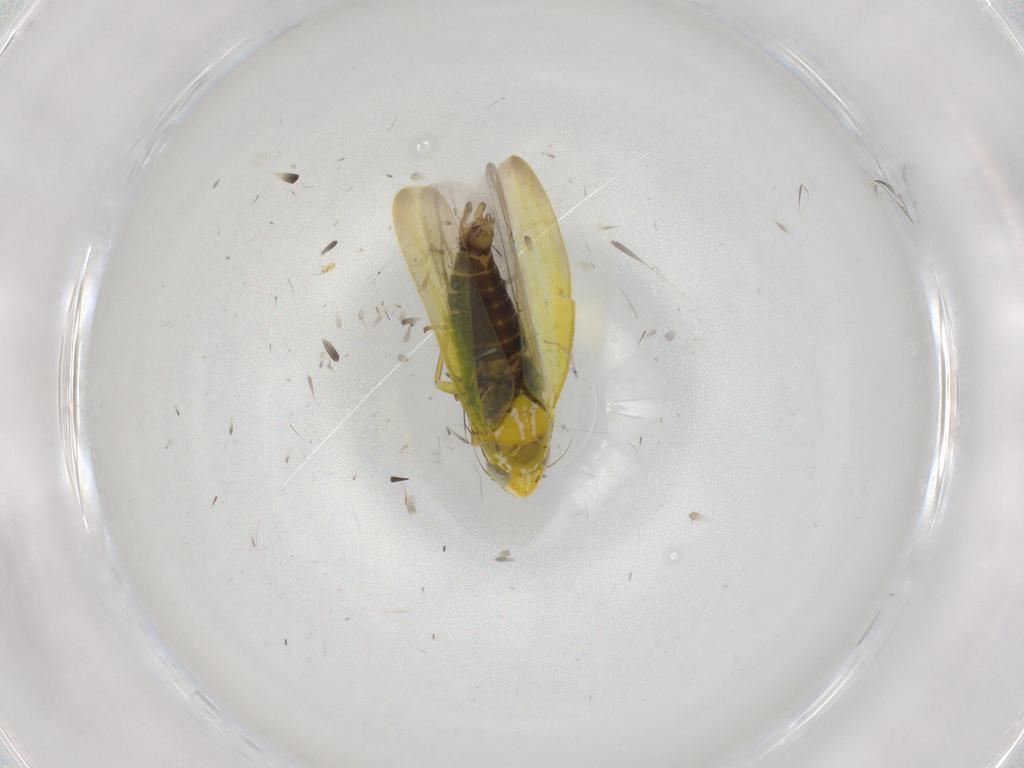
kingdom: Animalia
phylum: Arthropoda
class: Insecta
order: Hemiptera
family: Cicadellidae
